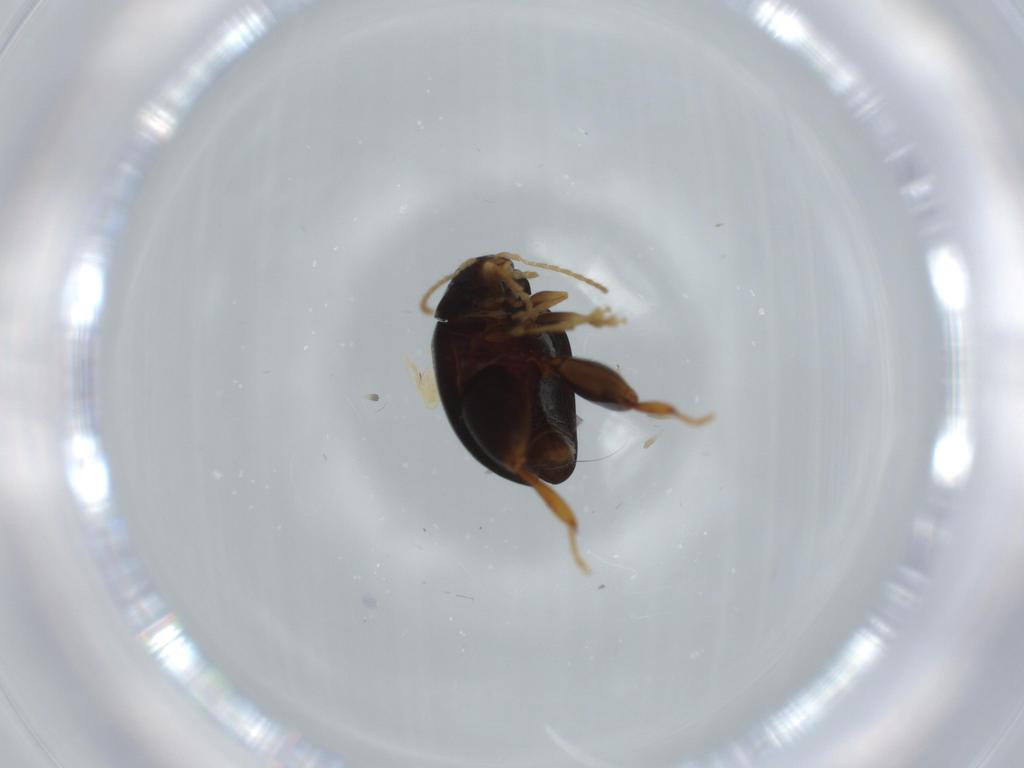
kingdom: Animalia
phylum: Arthropoda
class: Insecta
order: Coleoptera
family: Chrysomelidae
